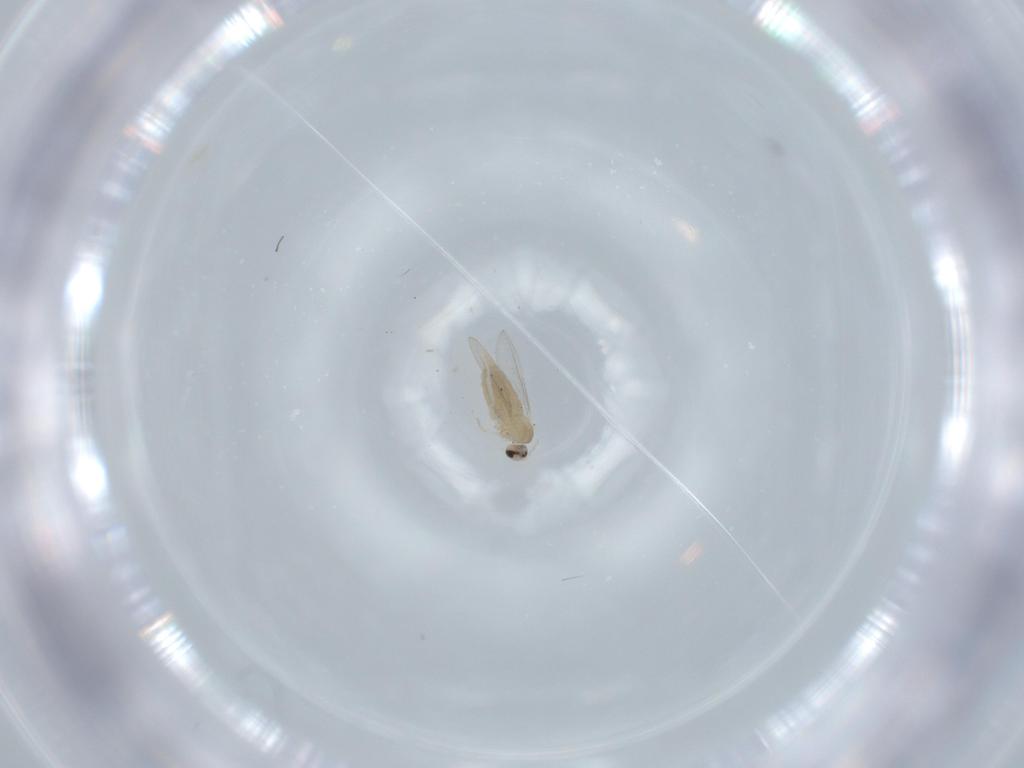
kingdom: Animalia
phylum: Arthropoda
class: Insecta
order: Diptera
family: Cecidomyiidae
